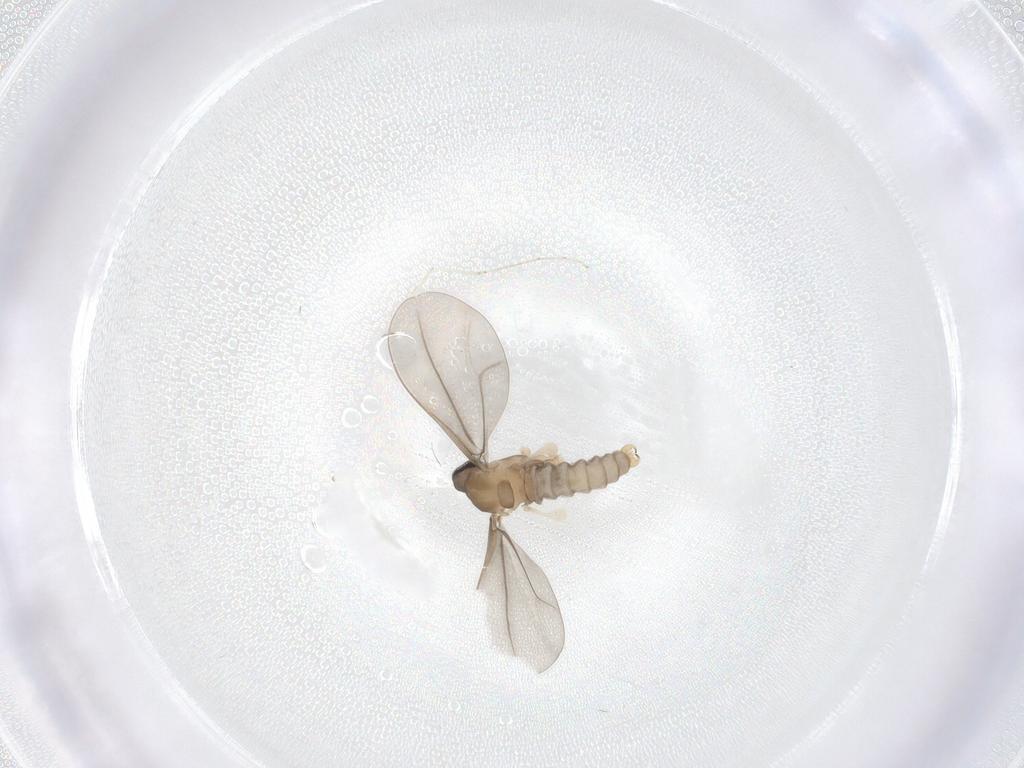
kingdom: Animalia
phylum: Arthropoda
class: Insecta
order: Diptera
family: Cecidomyiidae
